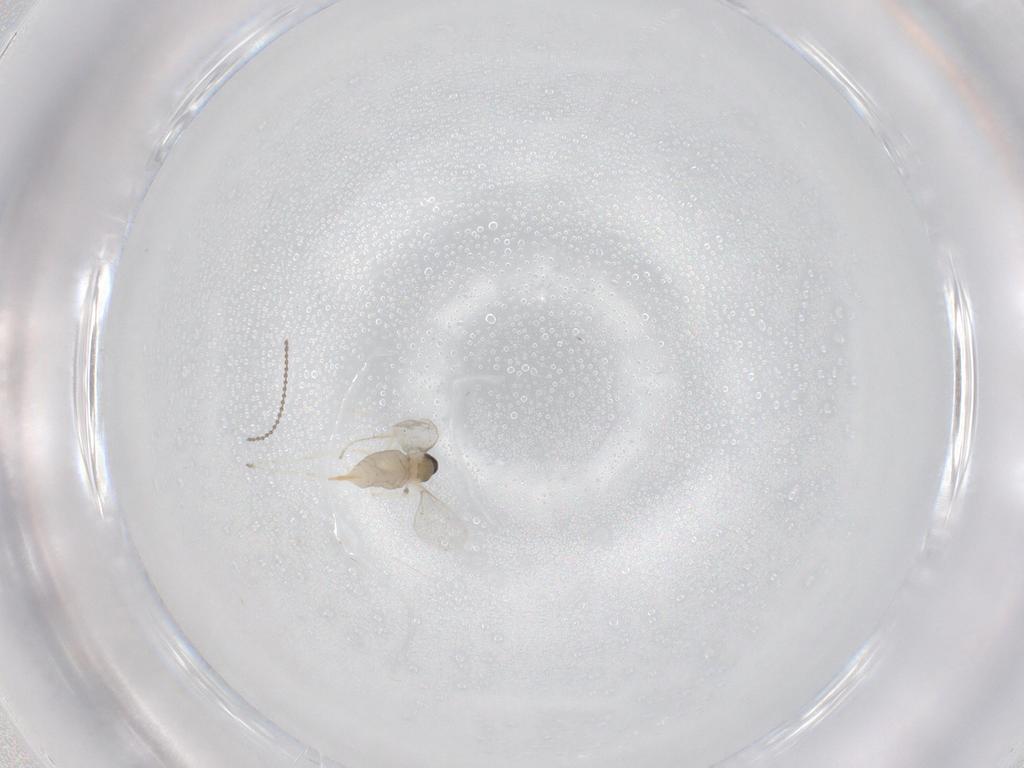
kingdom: Animalia
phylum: Arthropoda
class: Insecta
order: Diptera
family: Cecidomyiidae
